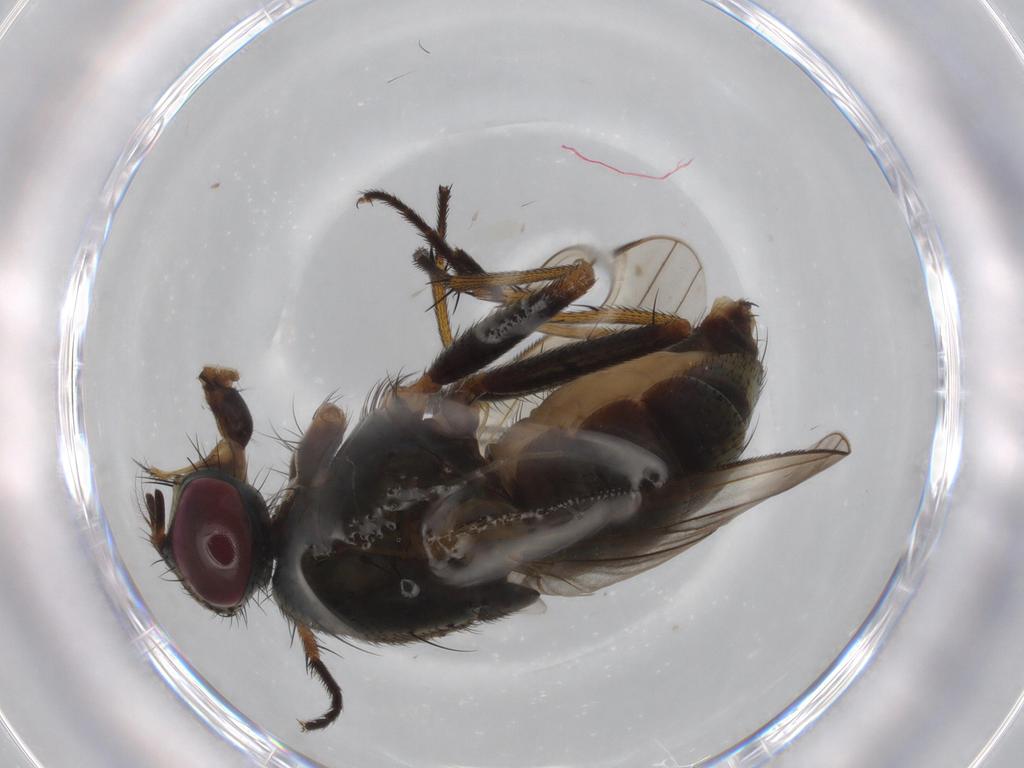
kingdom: Animalia
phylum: Arthropoda
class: Insecta
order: Diptera
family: Muscidae
